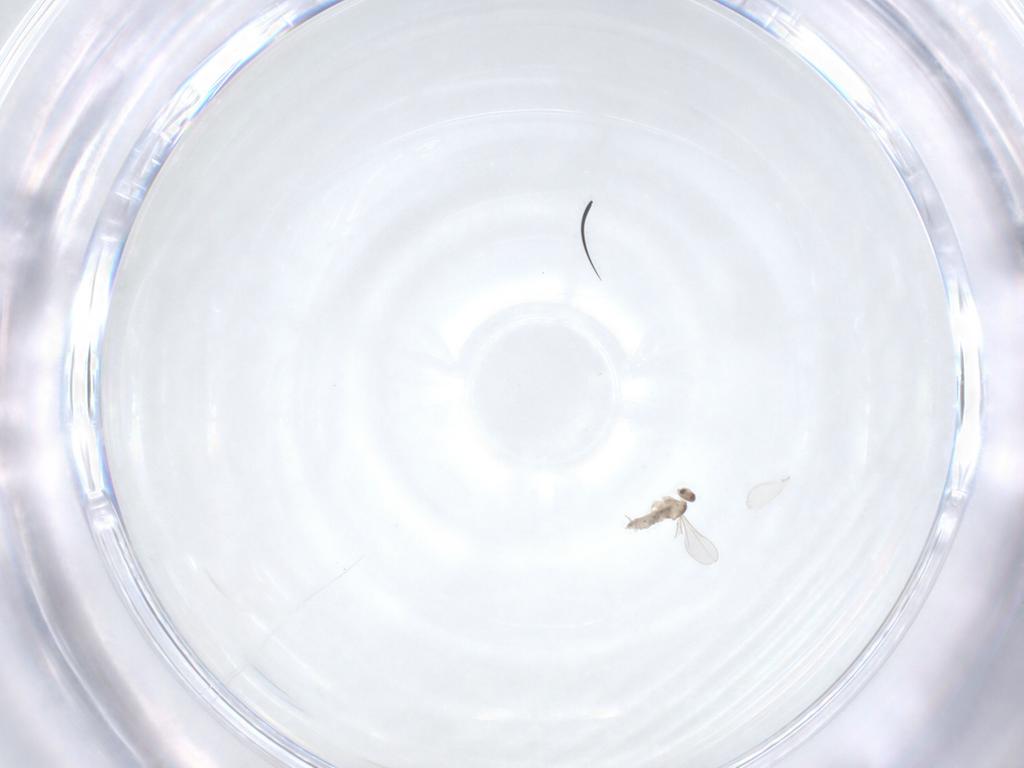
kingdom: Animalia
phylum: Arthropoda
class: Insecta
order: Diptera
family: Cecidomyiidae
